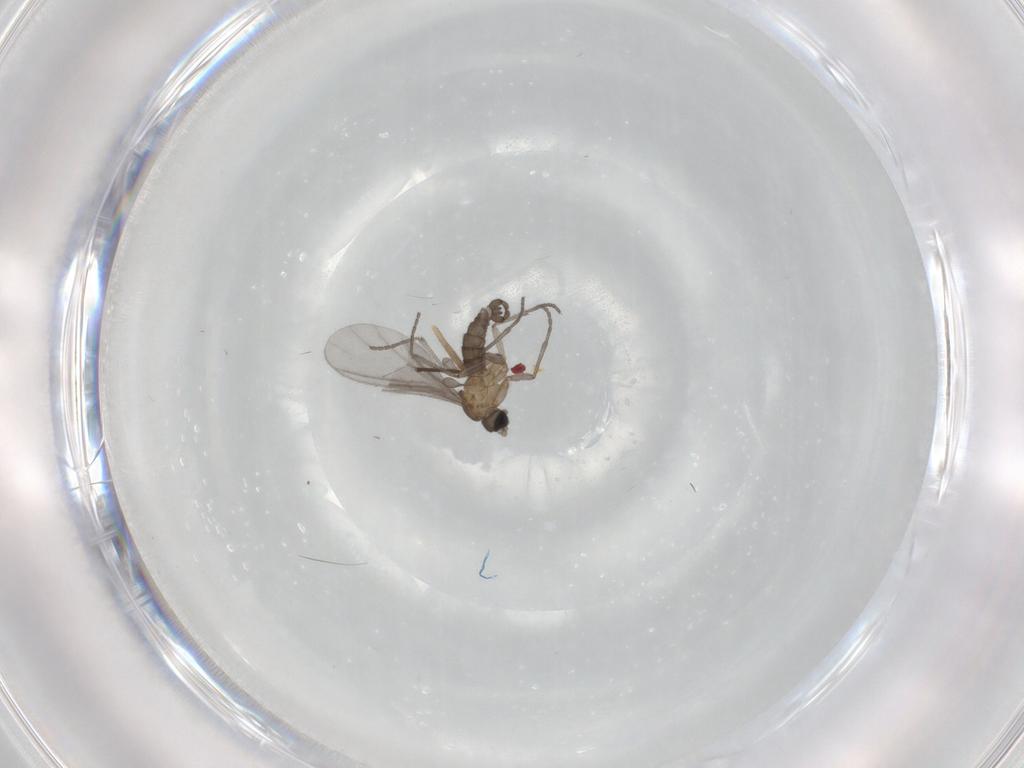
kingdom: Animalia
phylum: Arthropoda
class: Insecta
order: Diptera
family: Sciaridae
